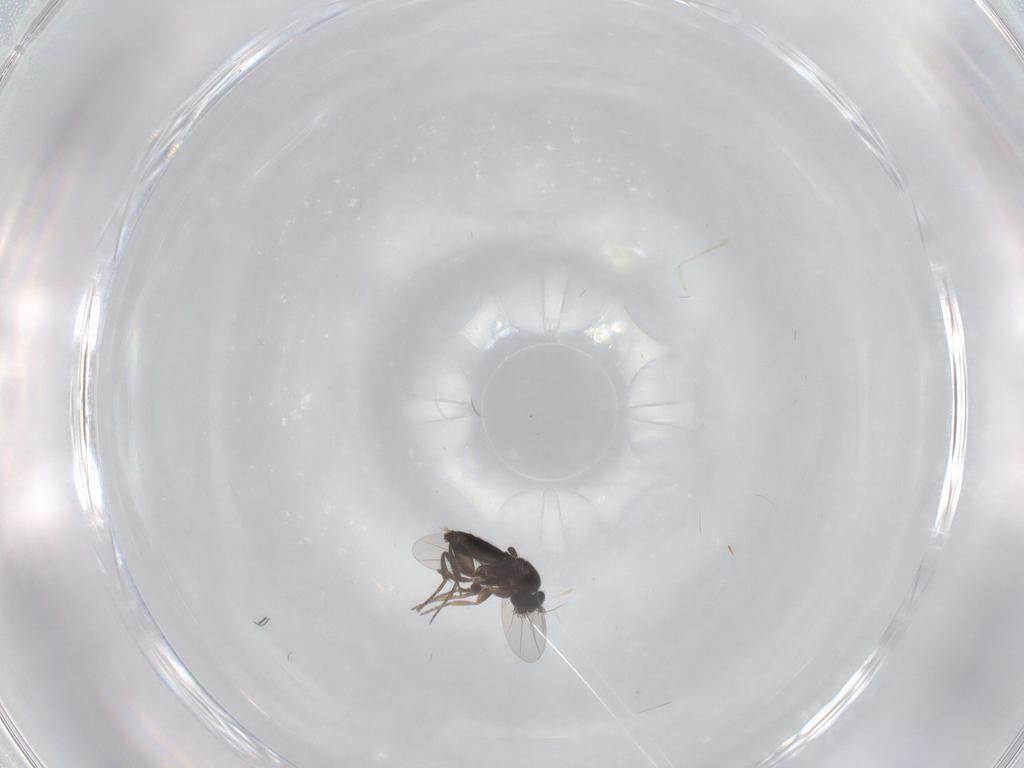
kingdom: Animalia
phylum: Arthropoda
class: Insecta
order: Diptera
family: Phoridae
